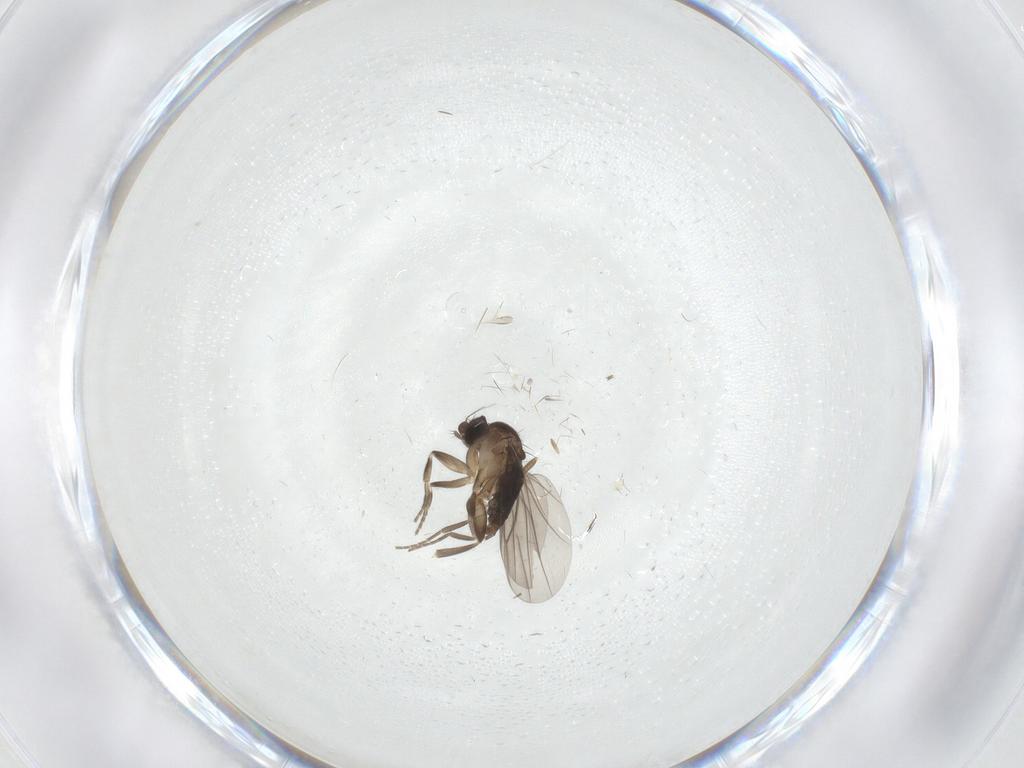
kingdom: Animalia
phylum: Arthropoda
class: Insecta
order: Diptera
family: Phoridae
